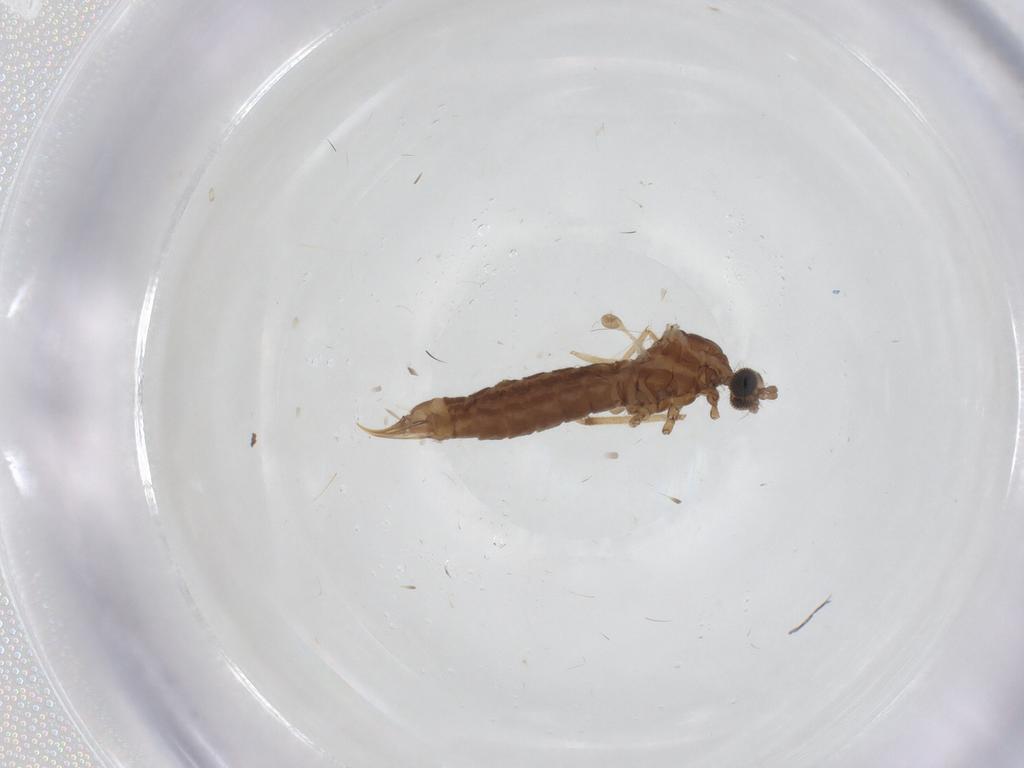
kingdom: Animalia
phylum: Arthropoda
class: Insecta
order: Diptera
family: Limoniidae
